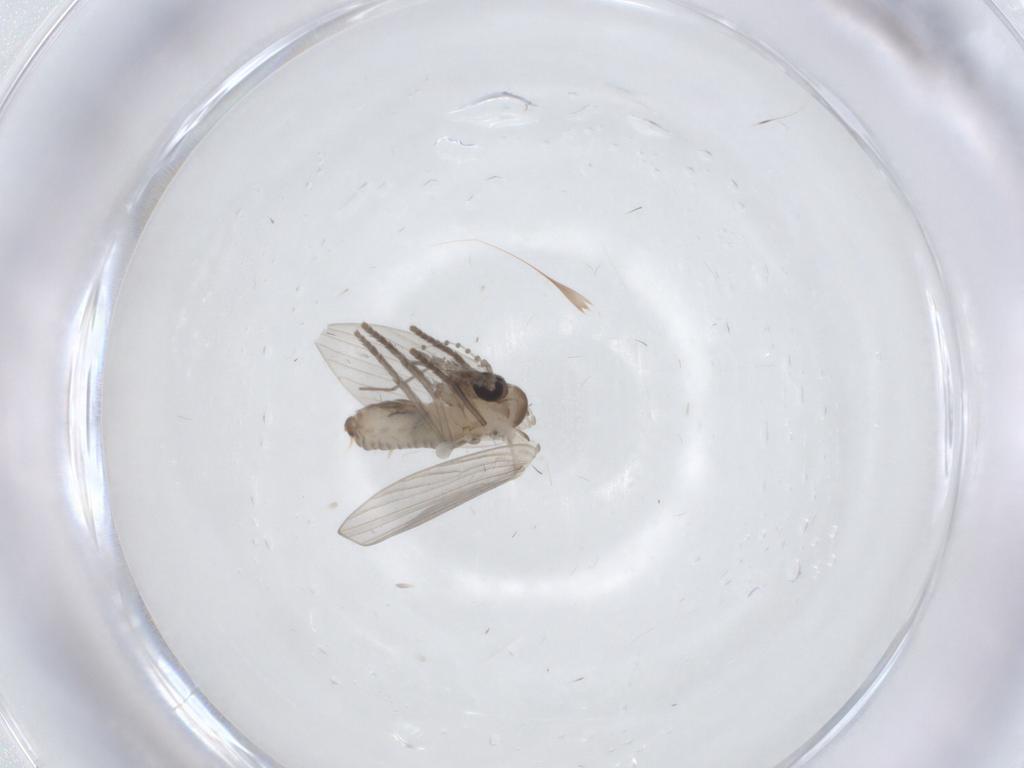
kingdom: Animalia
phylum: Arthropoda
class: Insecta
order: Diptera
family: Psychodidae
